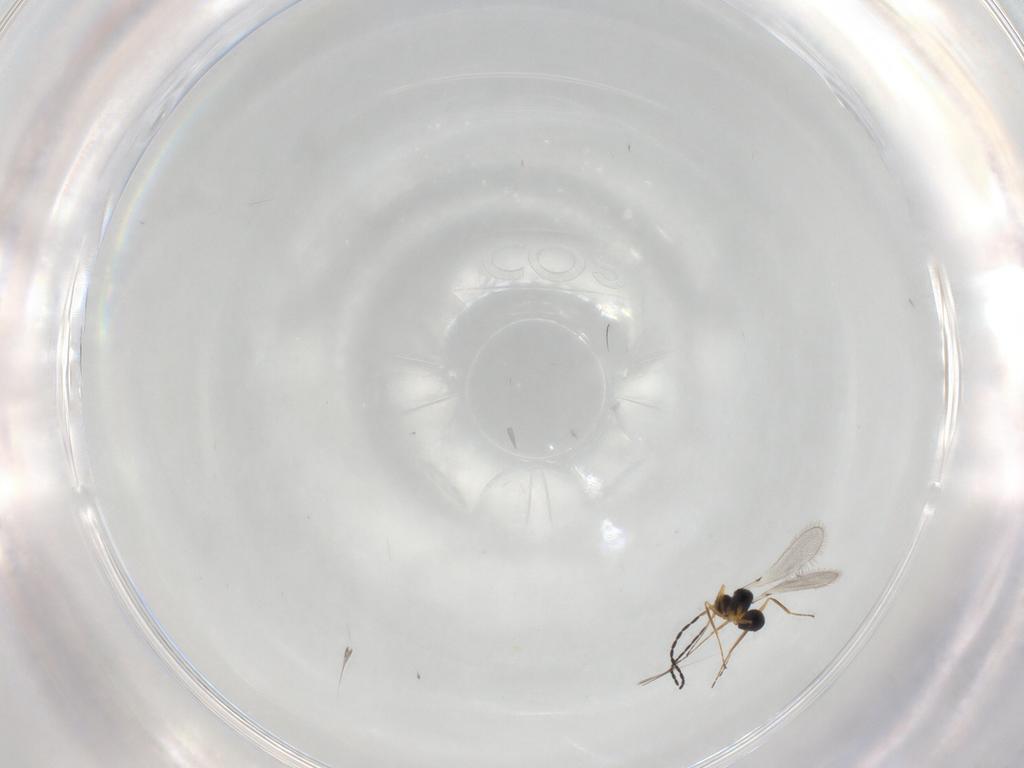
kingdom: Animalia
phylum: Arthropoda
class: Insecta
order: Hymenoptera
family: Mymaridae
